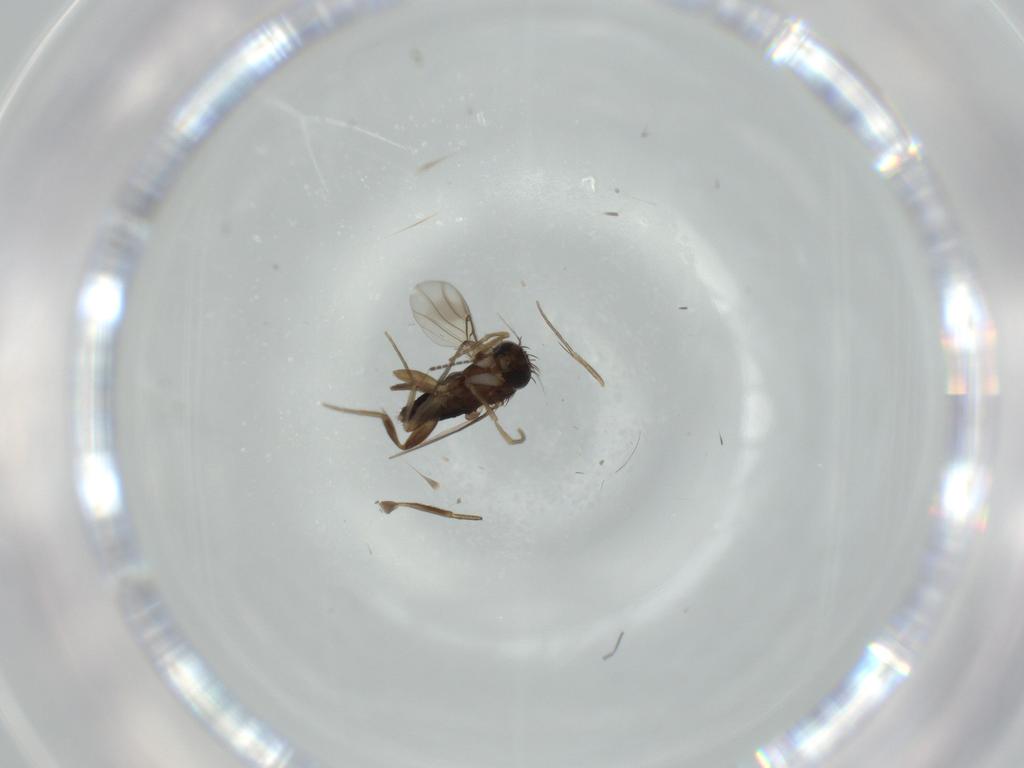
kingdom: Animalia
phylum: Arthropoda
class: Insecta
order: Diptera
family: Phoridae
